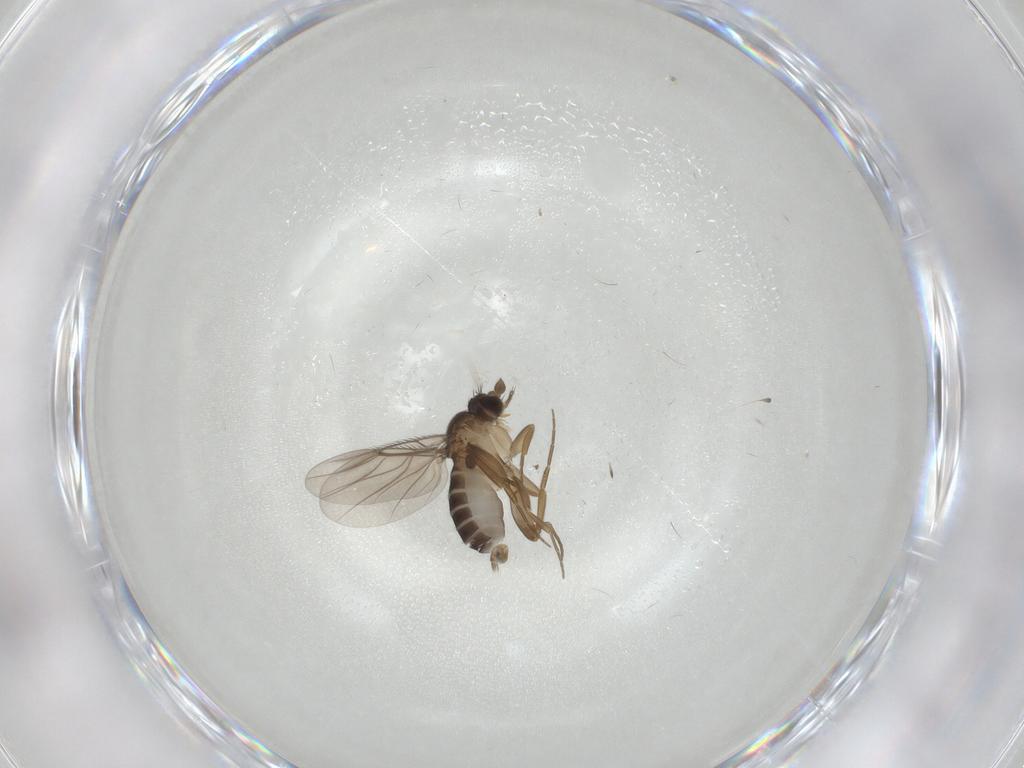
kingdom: Animalia
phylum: Arthropoda
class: Insecta
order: Diptera
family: Phoridae
